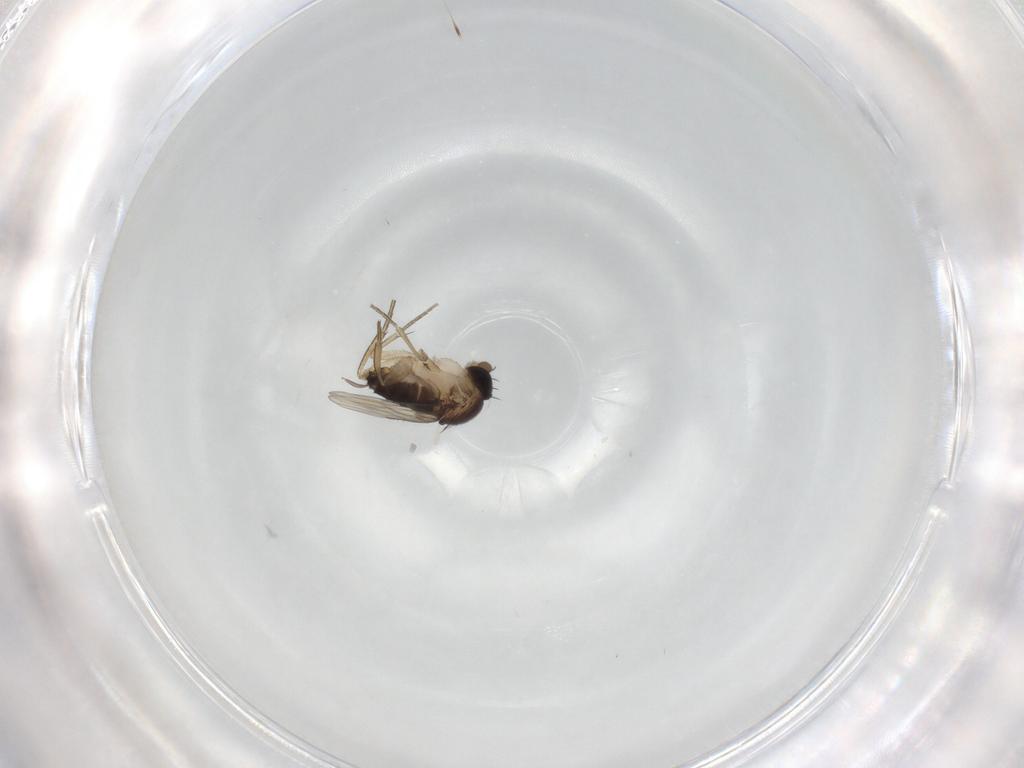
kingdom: Animalia
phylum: Arthropoda
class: Insecta
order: Diptera
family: Phoridae
